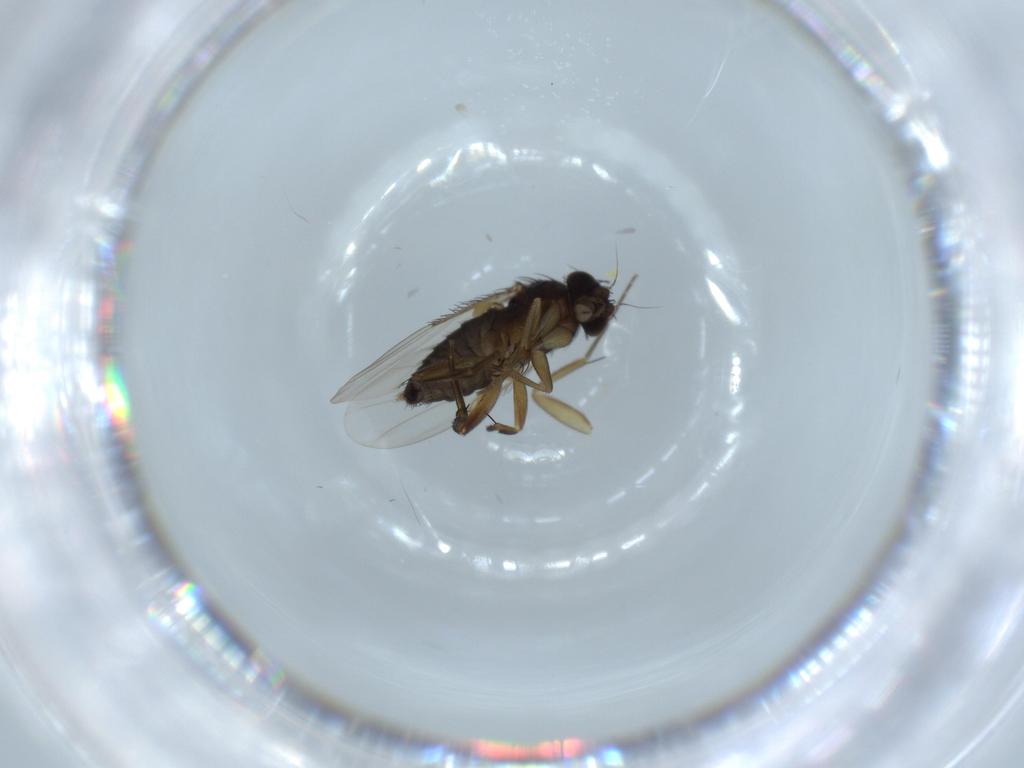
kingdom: Animalia
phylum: Arthropoda
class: Insecta
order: Diptera
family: Phoridae
